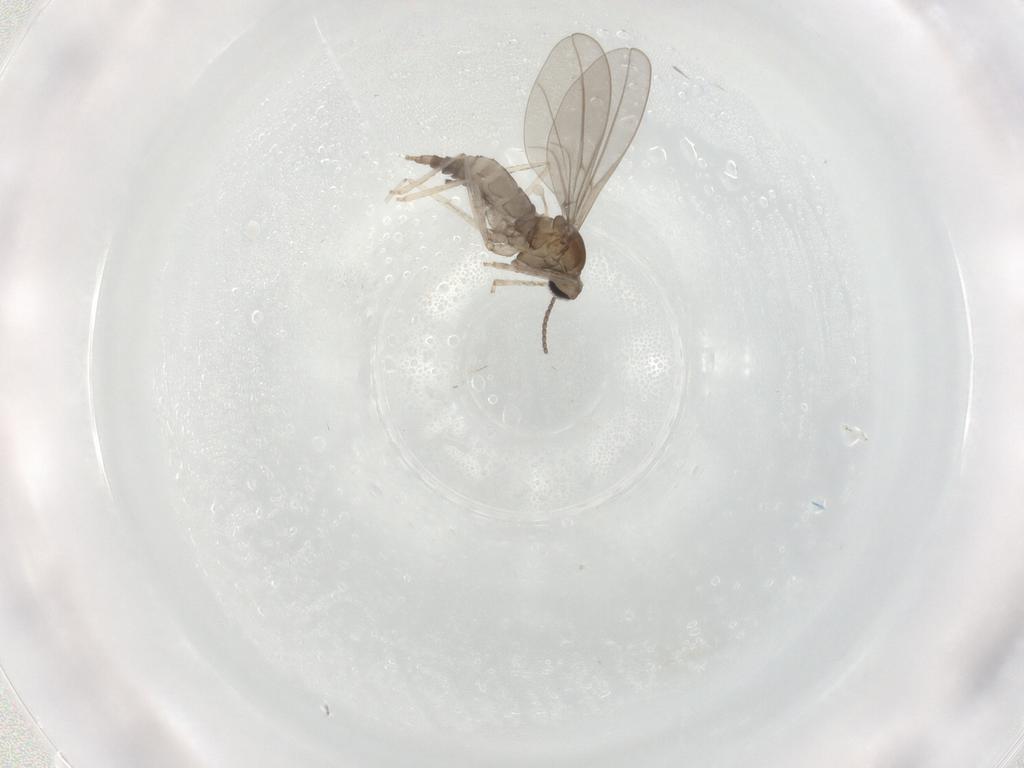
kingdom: Animalia
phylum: Arthropoda
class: Insecta
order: Diptera
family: Cecidomyiidae
